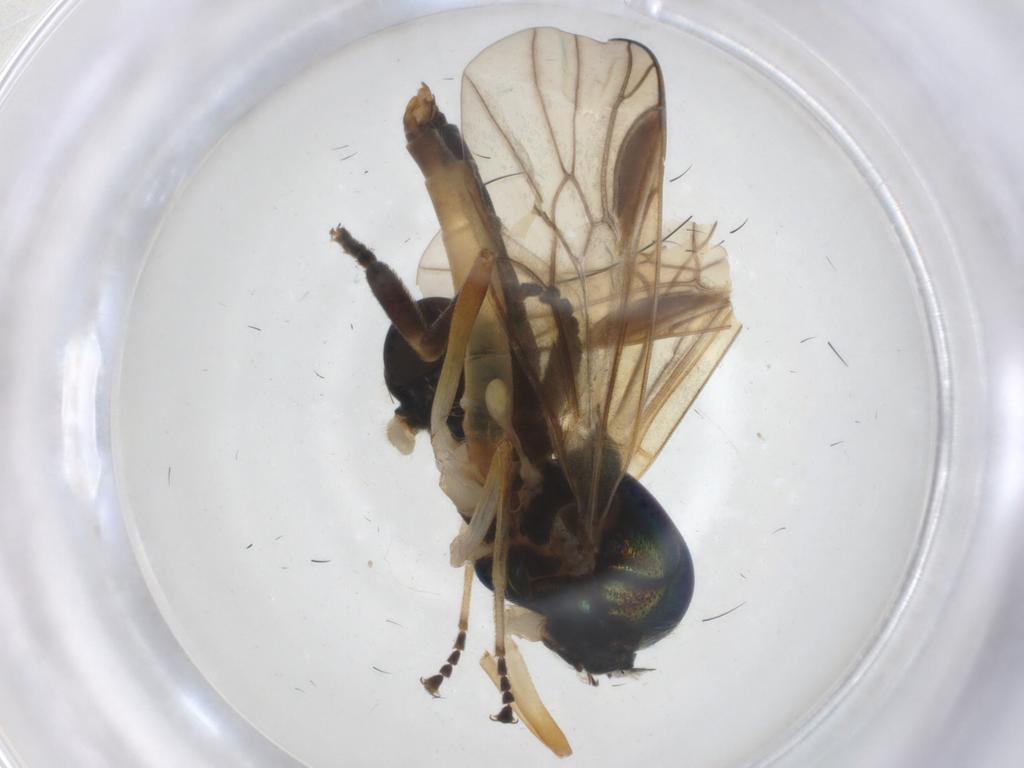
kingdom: Animalia
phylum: Arthropoda
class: Insecta
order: Diptera
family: Stratiomyidae
